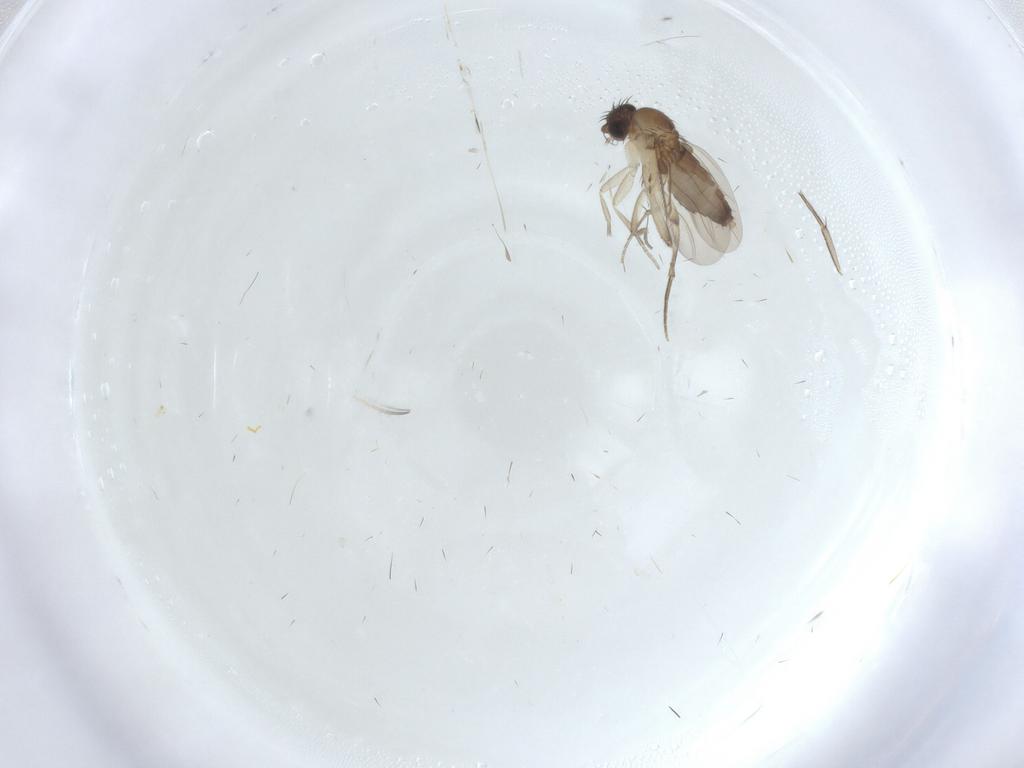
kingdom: Animalia
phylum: Arthropoda
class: Insecta
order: Diptera
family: Phoridae
